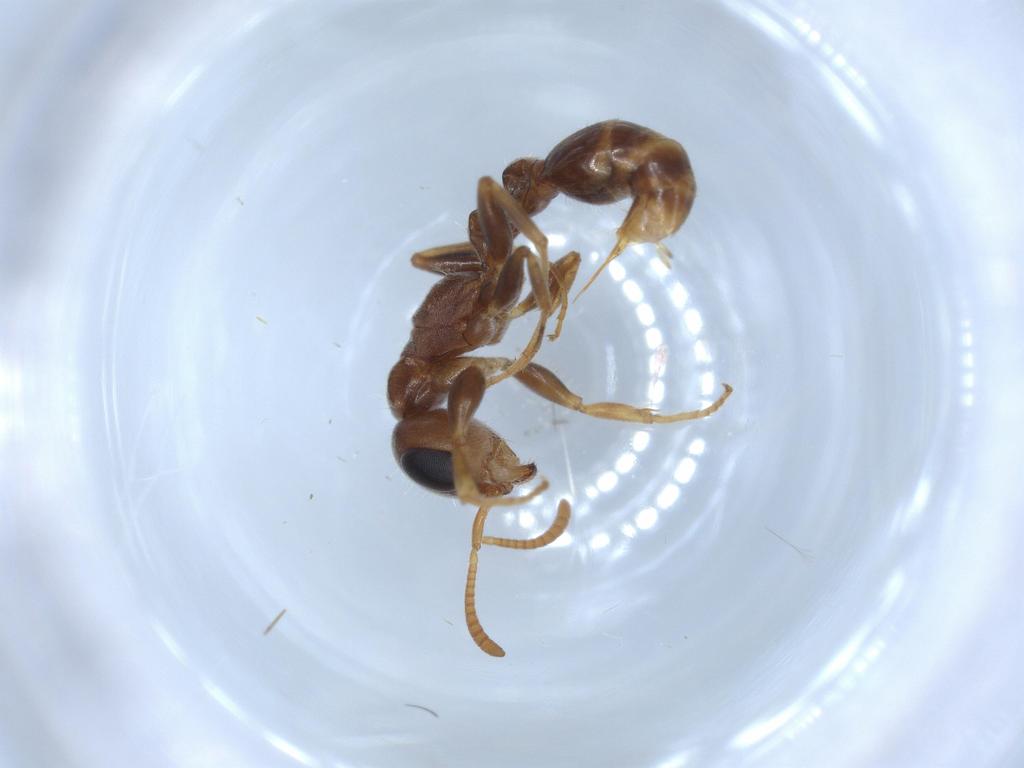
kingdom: Animalia
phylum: Arthropoda
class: Insecta
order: Hymenoptera
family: Formicidae
